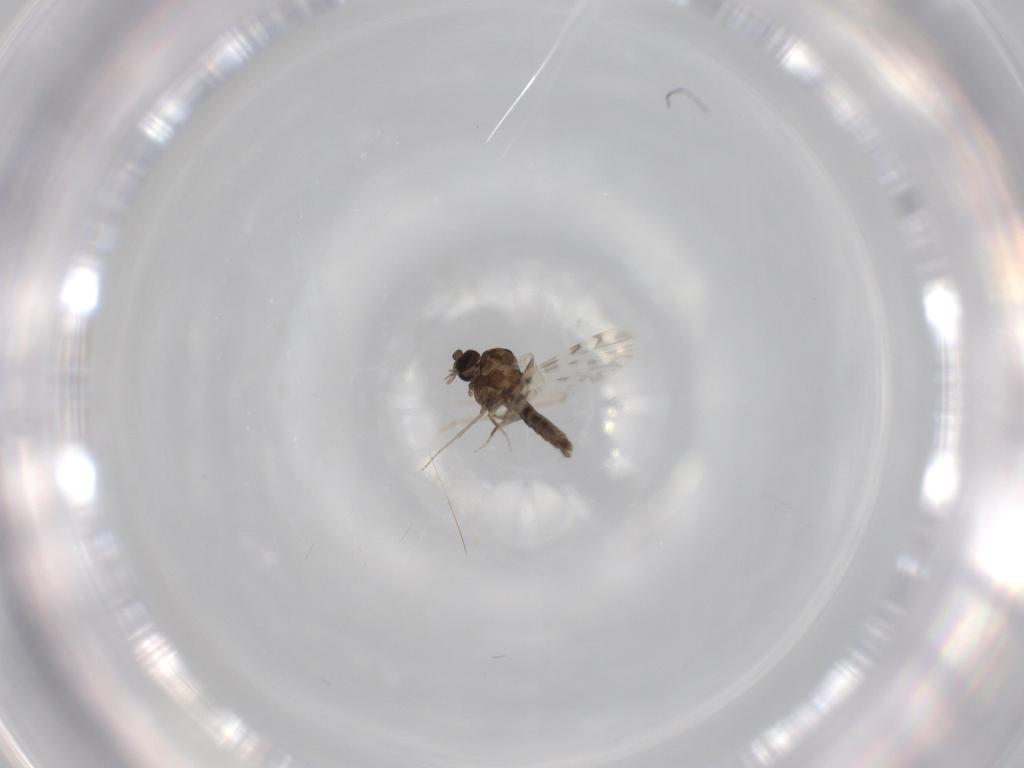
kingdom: Animalia
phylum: Arthropoda
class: Insecta
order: Diptera
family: Ceratopogonidae
